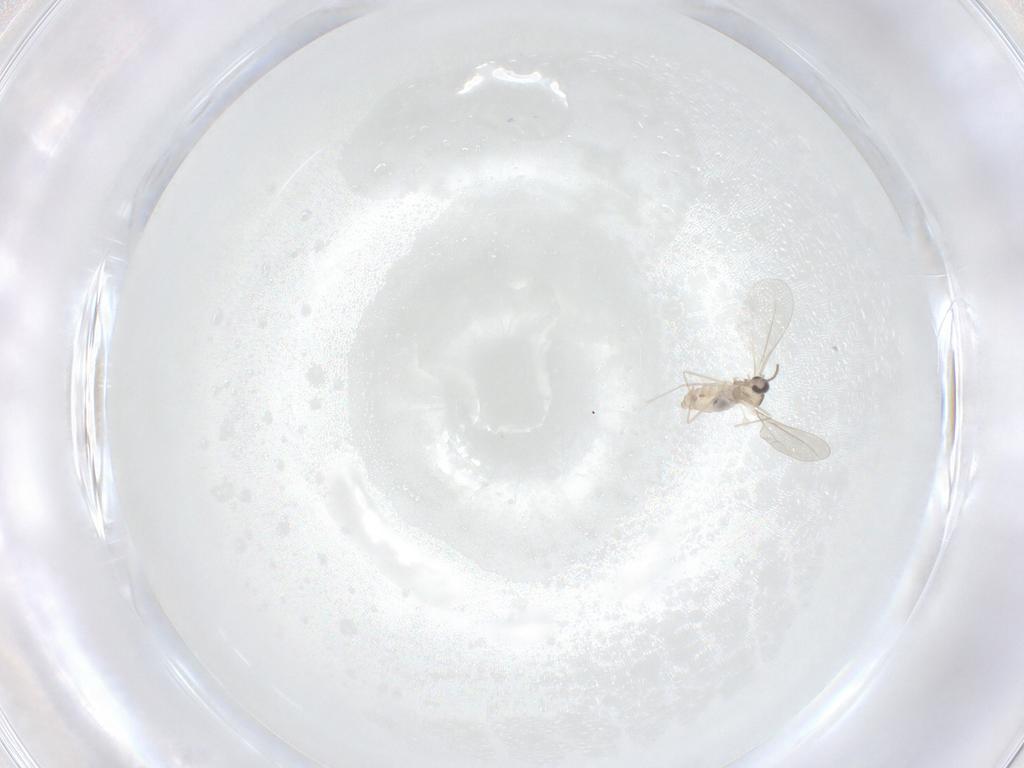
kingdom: Animalia
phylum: Arthropoda
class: Insecta
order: Diptera
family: Cecidomyiidae
